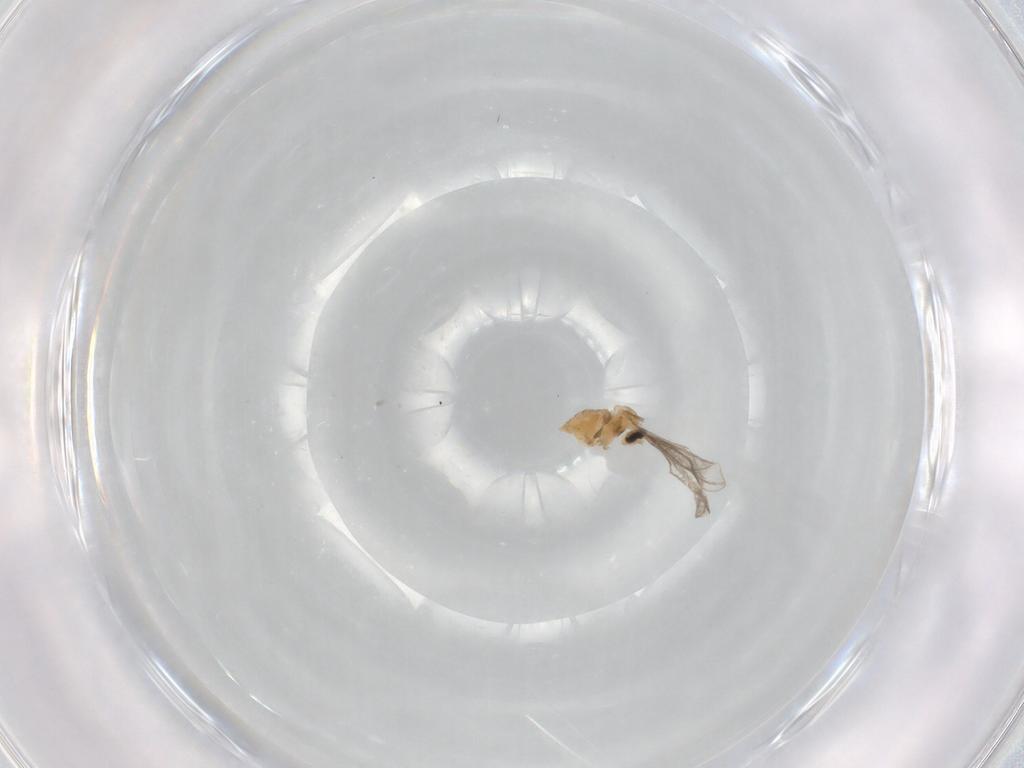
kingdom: Animalia
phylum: Arthropoda
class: Insecta
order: Diptera
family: Cecidomyiidae
